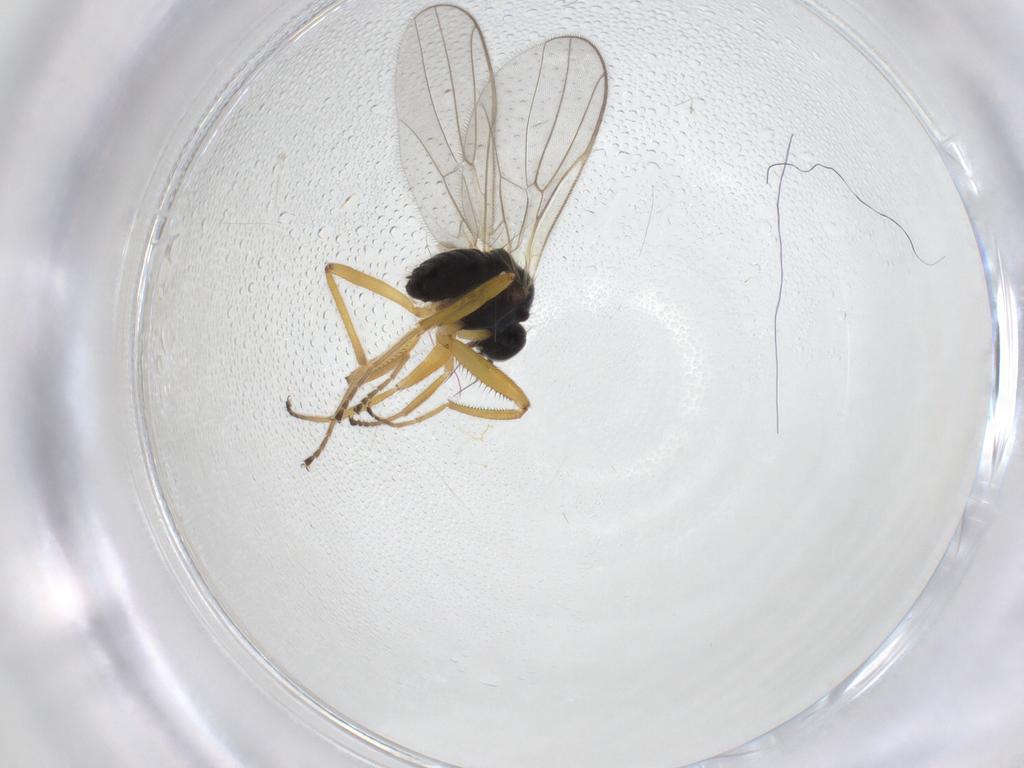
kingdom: Animalia
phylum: Arthropoda
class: Insecta
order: Diptera
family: Hybotidae
